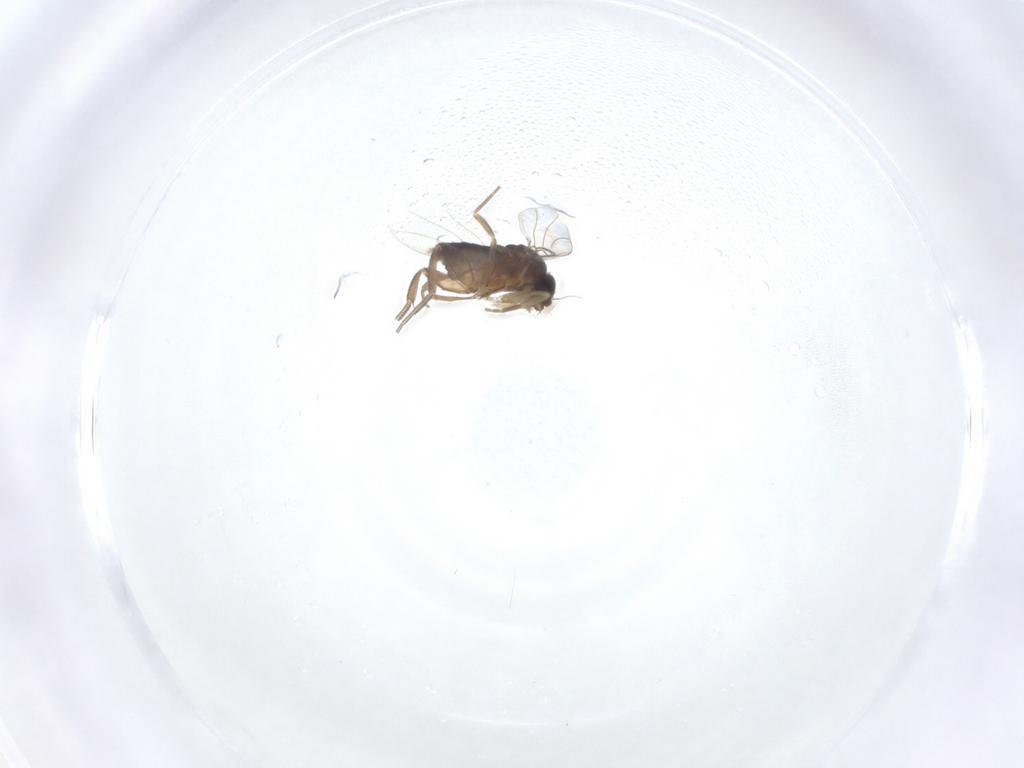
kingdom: Animalia
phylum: Arthropoda
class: Insecta
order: Diptera
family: Phoridae
